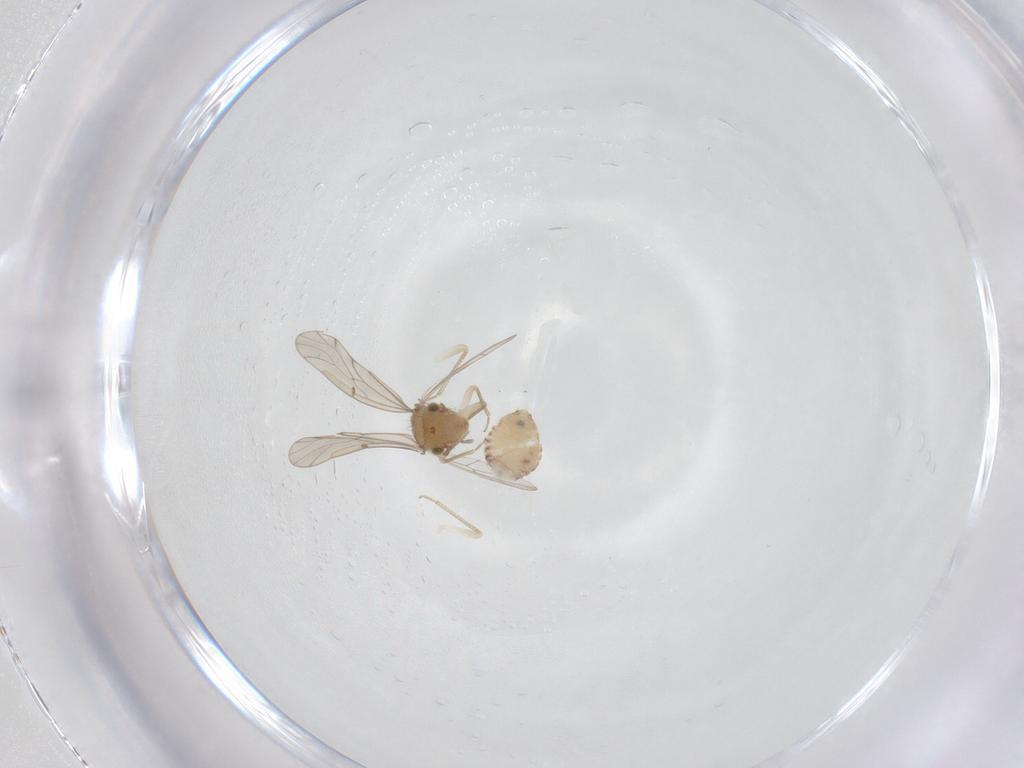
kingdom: Animalia
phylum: Arthropoda
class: Insecta
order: Psocodea
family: Ectopsocidae
